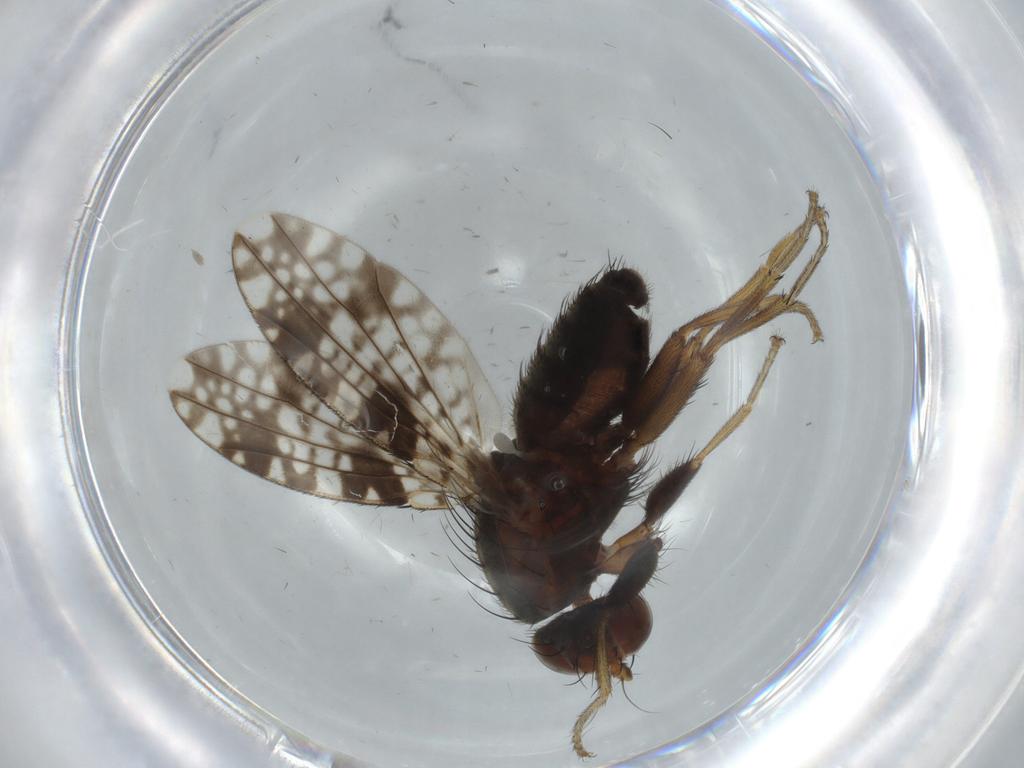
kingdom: Animalia
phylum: Arthropoda
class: Insecta
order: Diptera
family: Tephritidae
